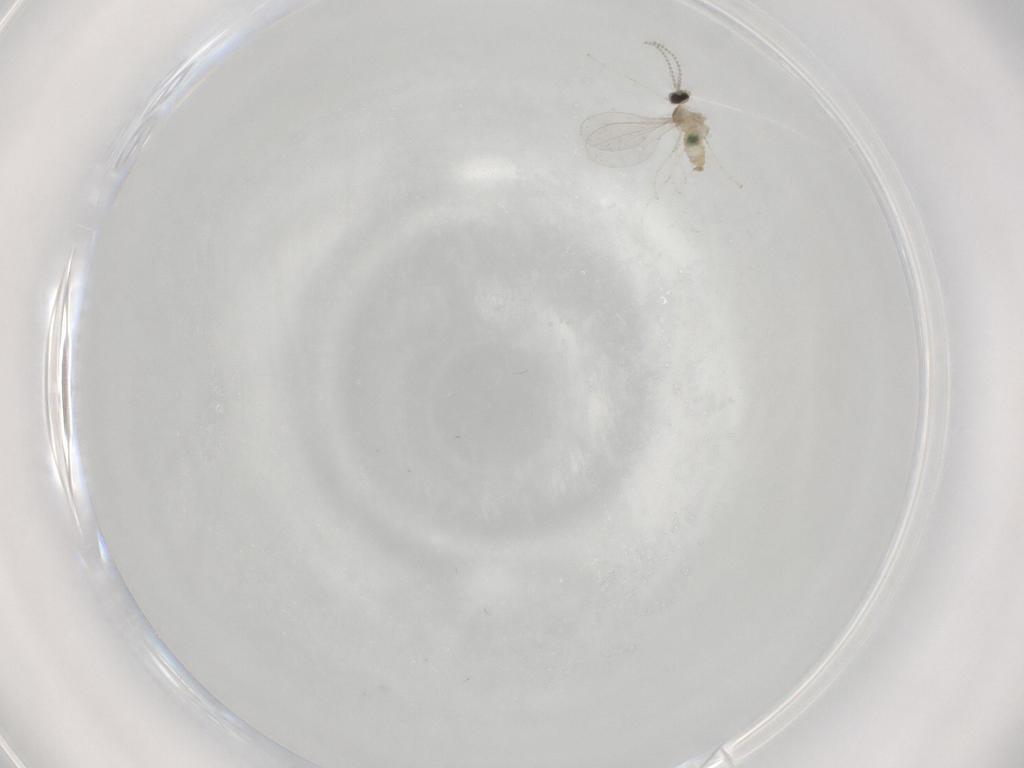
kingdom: Animalia
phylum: Arthropoda
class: Insecta
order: Diptera
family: Cecidomyiidae
